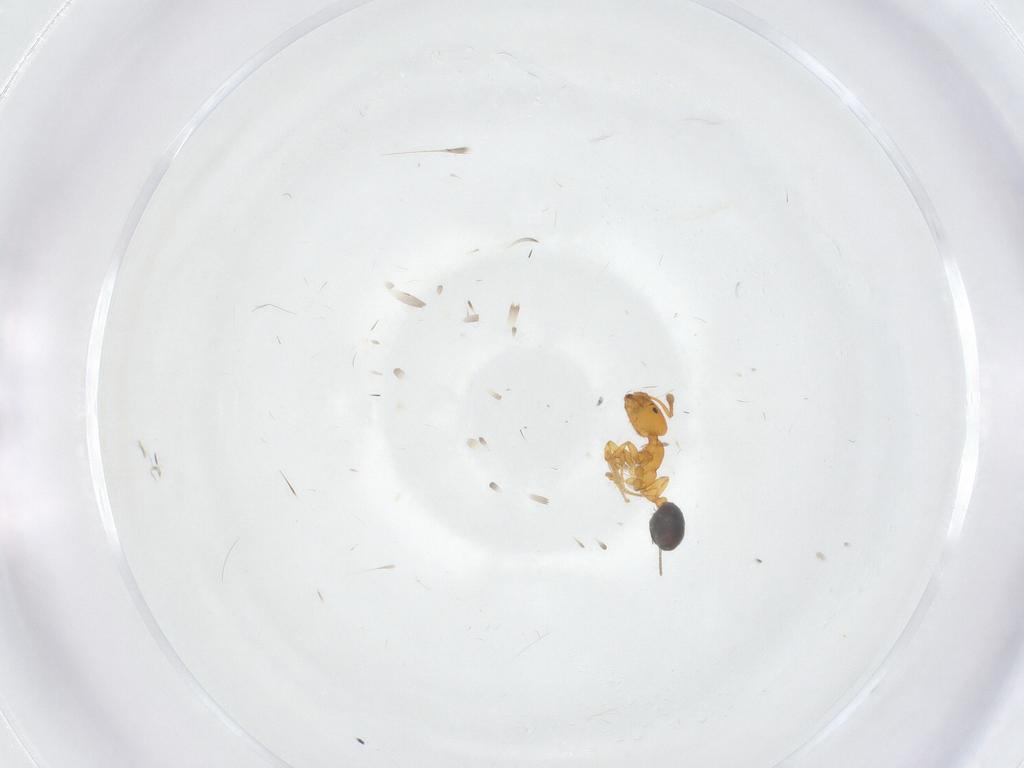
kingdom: Animalia
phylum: Arthropoda
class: Insecta
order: Hymenoptera
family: Formicidae
